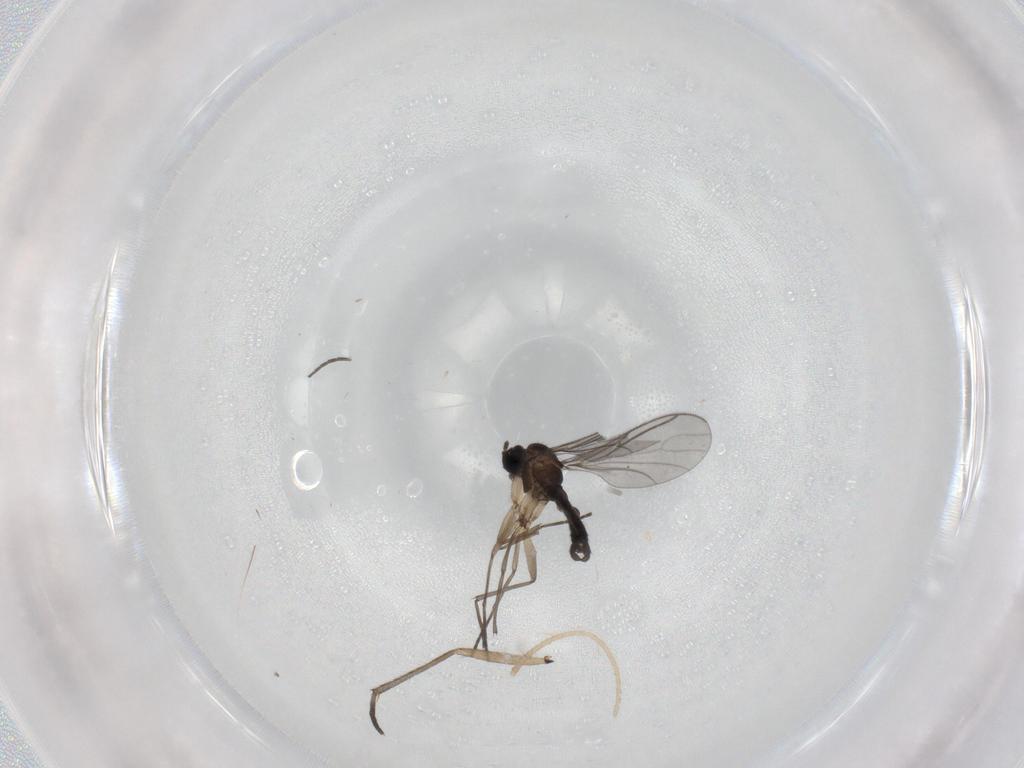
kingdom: Animalia
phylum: Arthropoda
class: Insecta
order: Diptera
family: Sciaridae
